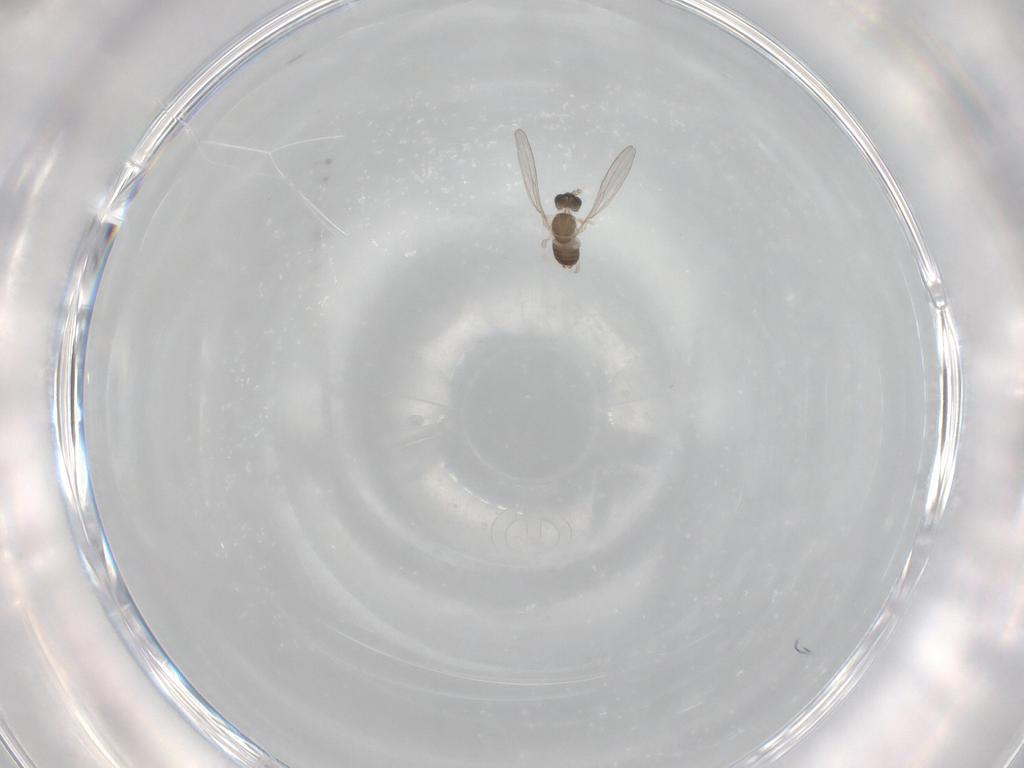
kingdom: Animalia
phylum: Arthropoda
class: Insecta
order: Diptera
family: Cecidomyiidae
